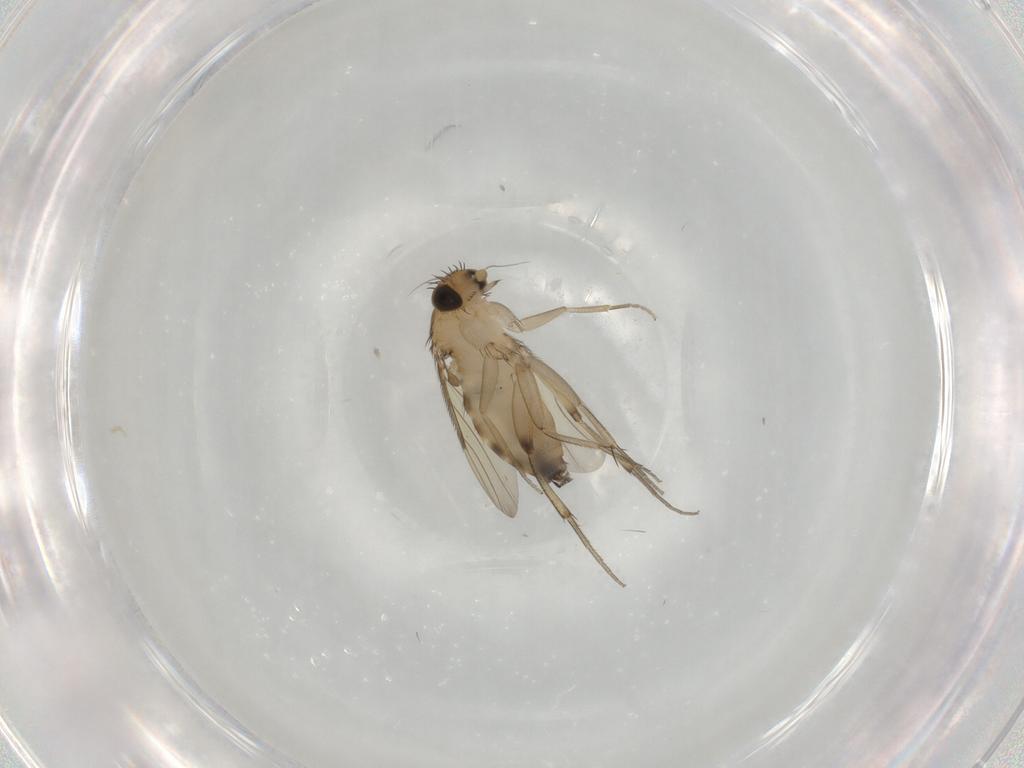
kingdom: Animalia
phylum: Arthropoda
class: Insecta
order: Diptera
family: Phoridae
